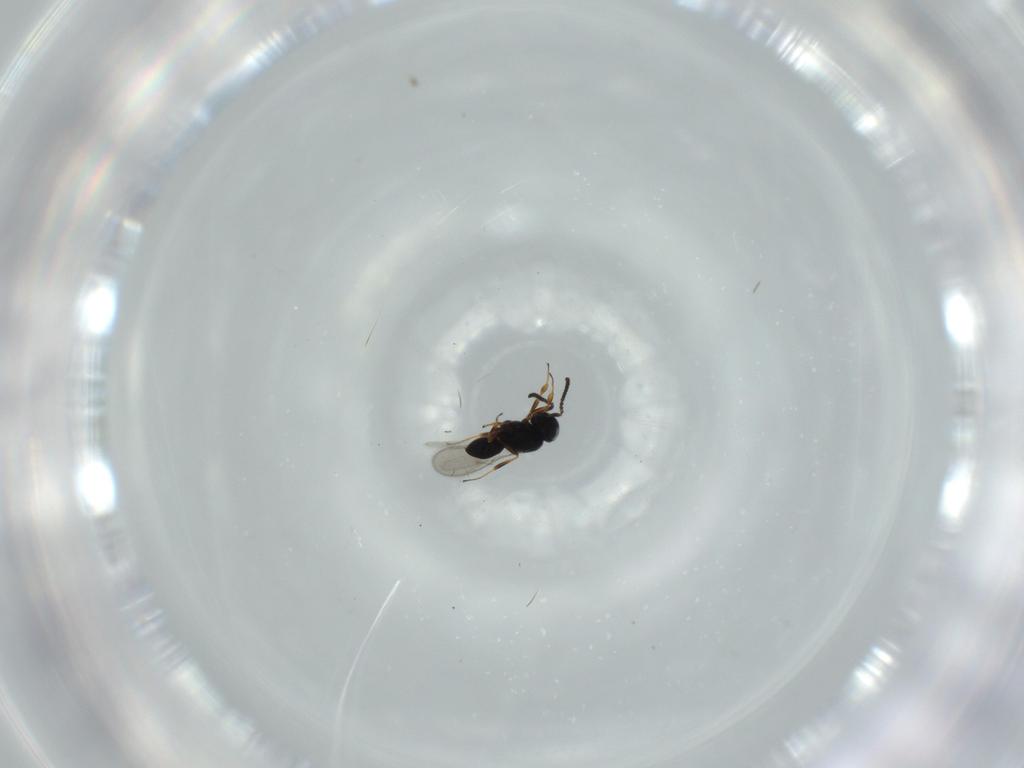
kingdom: Animalia
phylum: Arthropoda
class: Insecta
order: Hymenoptera
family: Scelionidae
